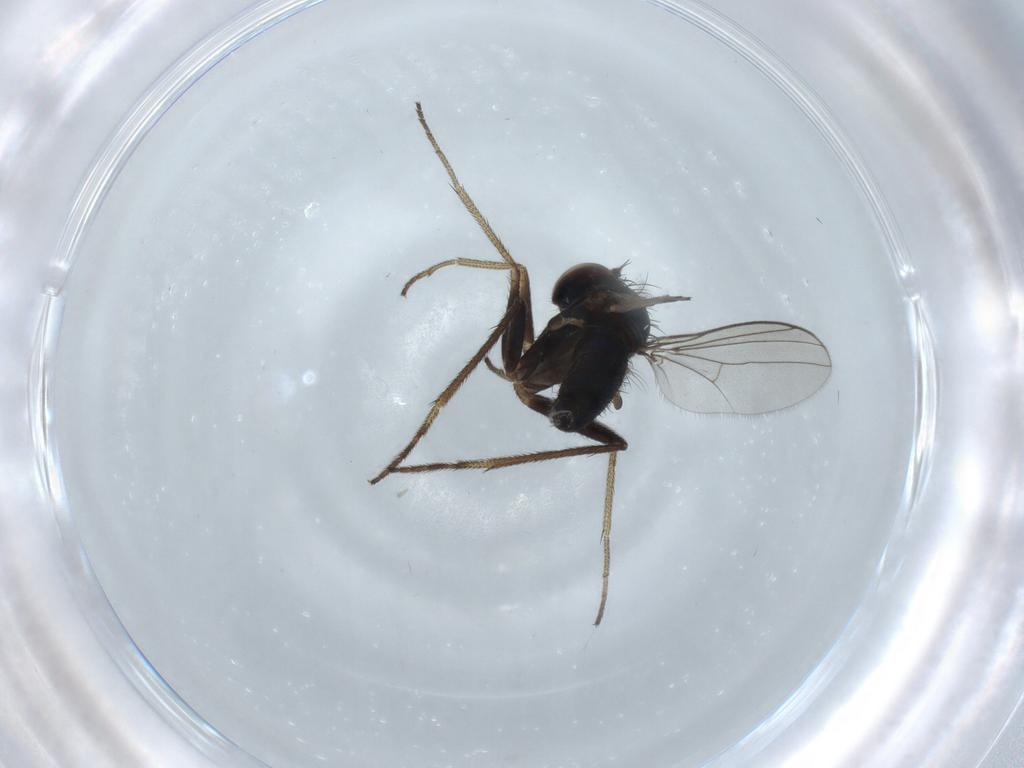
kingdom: Animalia
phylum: Arthropoda
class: Insecta
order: Diptera
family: Dolichopodidae
